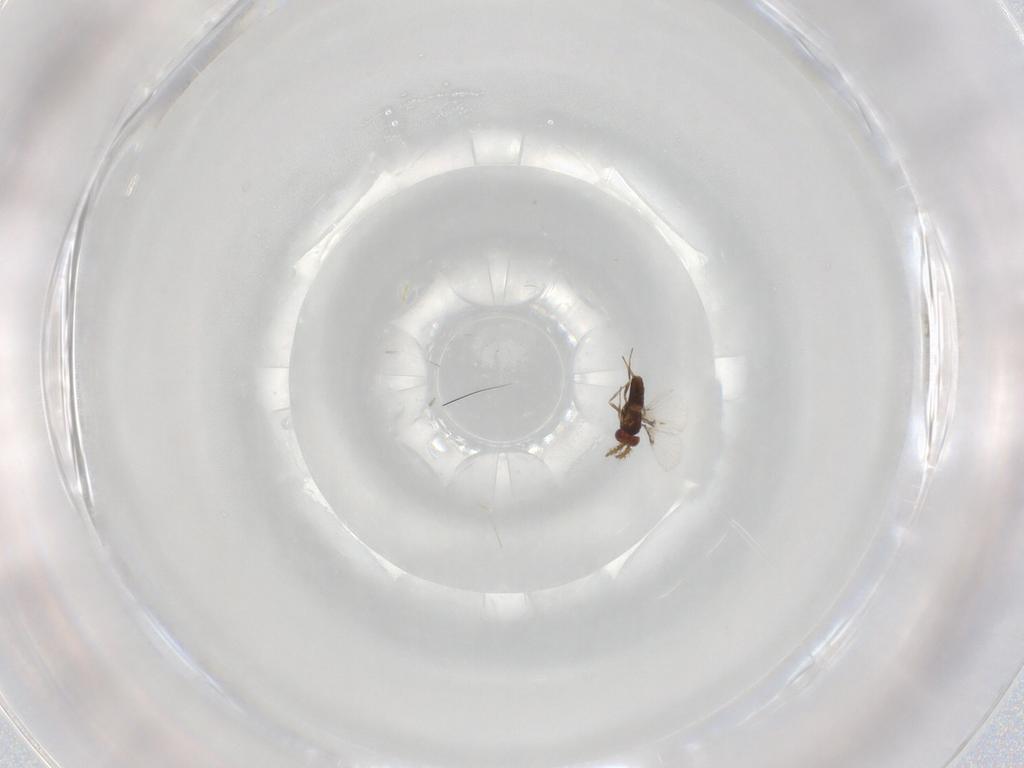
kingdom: Animalia
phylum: Arthropoda
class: Insecta
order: Hymenoptera
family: Agaonidae
